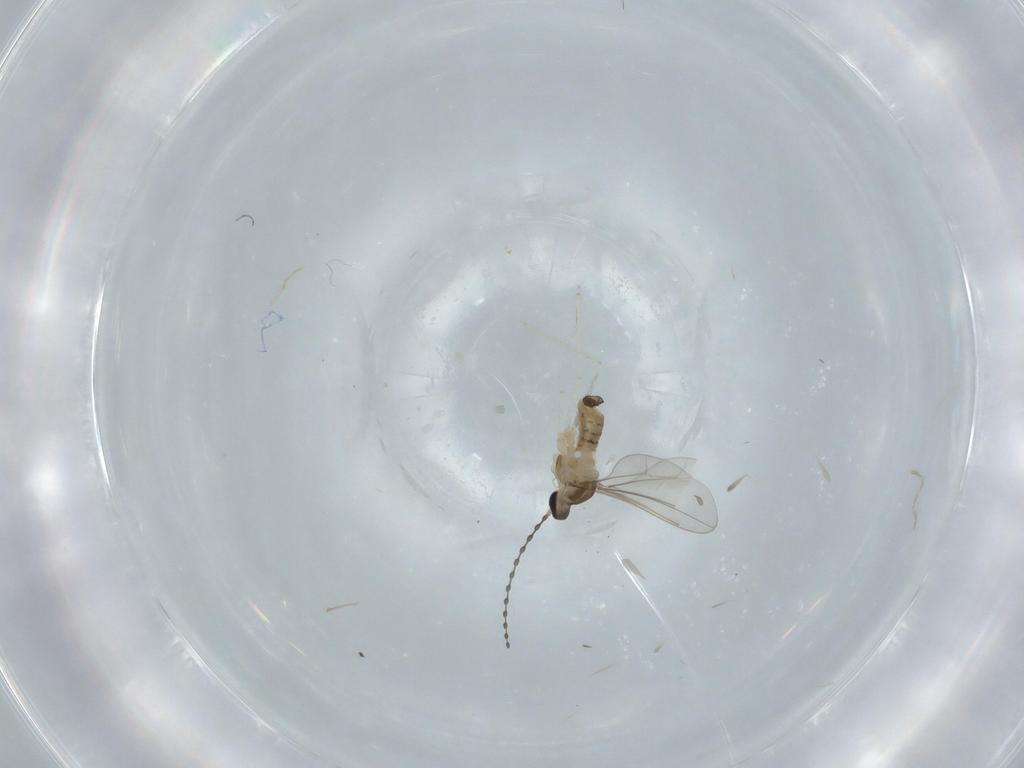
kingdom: Animalia
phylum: Arthropoda
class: Insecta
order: Diptera
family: Cecidomyiidae
